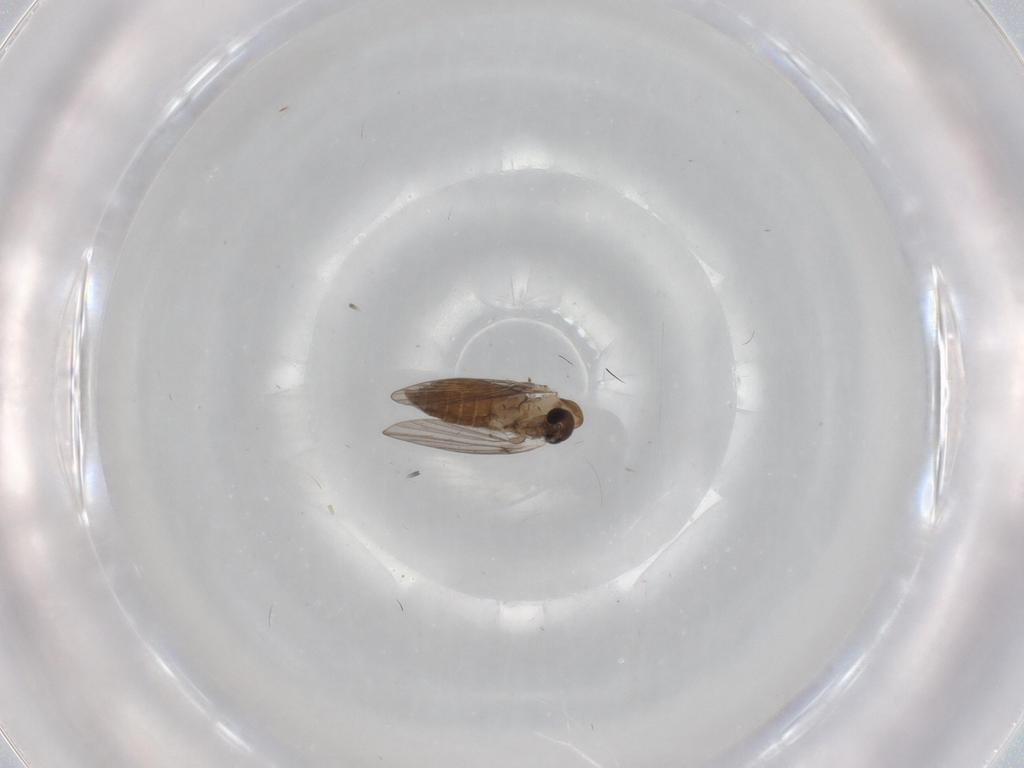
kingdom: Animalia
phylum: Arthropoda
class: Insecta
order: Diptera
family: Ceratopogonidae
